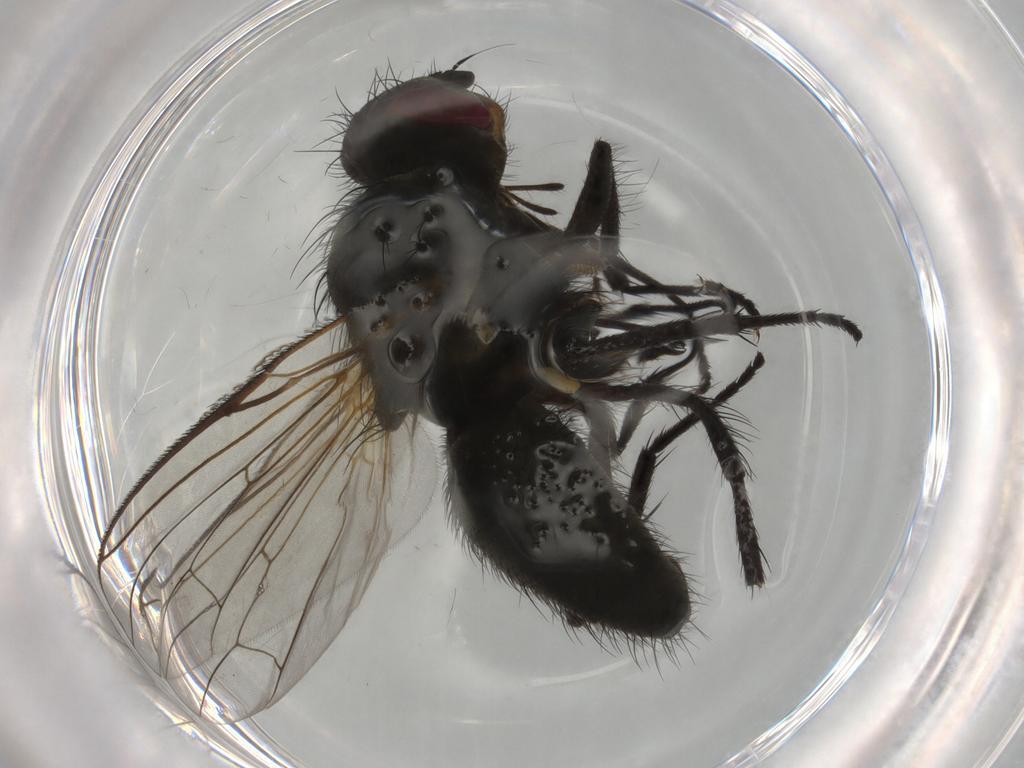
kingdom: Animalia
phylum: Arthropoda
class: Insecta
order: Diptera
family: Anthomyiidae
